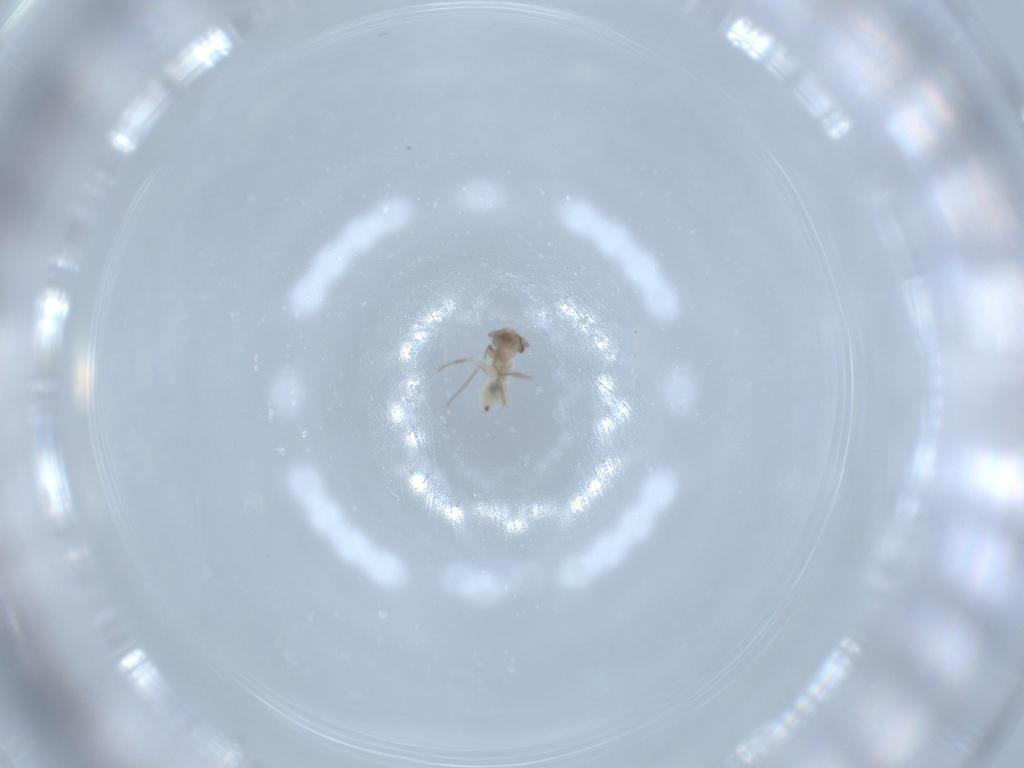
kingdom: Animalia
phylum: Arthropoda
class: Insecta
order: Psocodea
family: Lepidopsocidae
